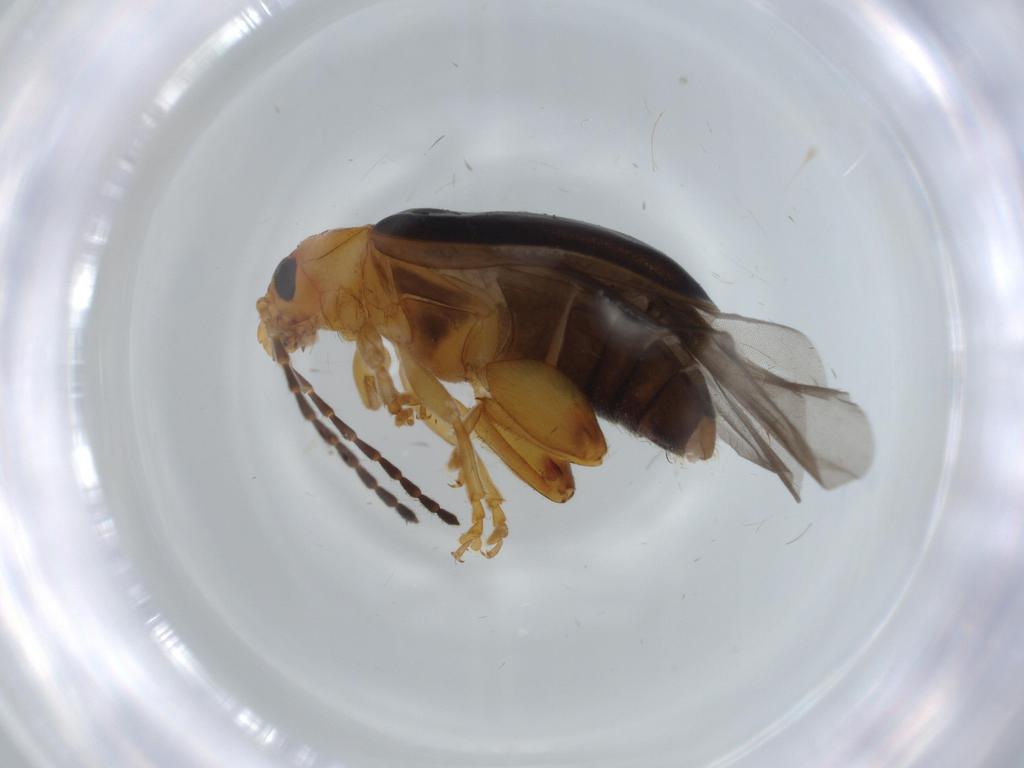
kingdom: Animalia
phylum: Arthropoda
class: Insecta
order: Coleoptera
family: Chrysomelidae
